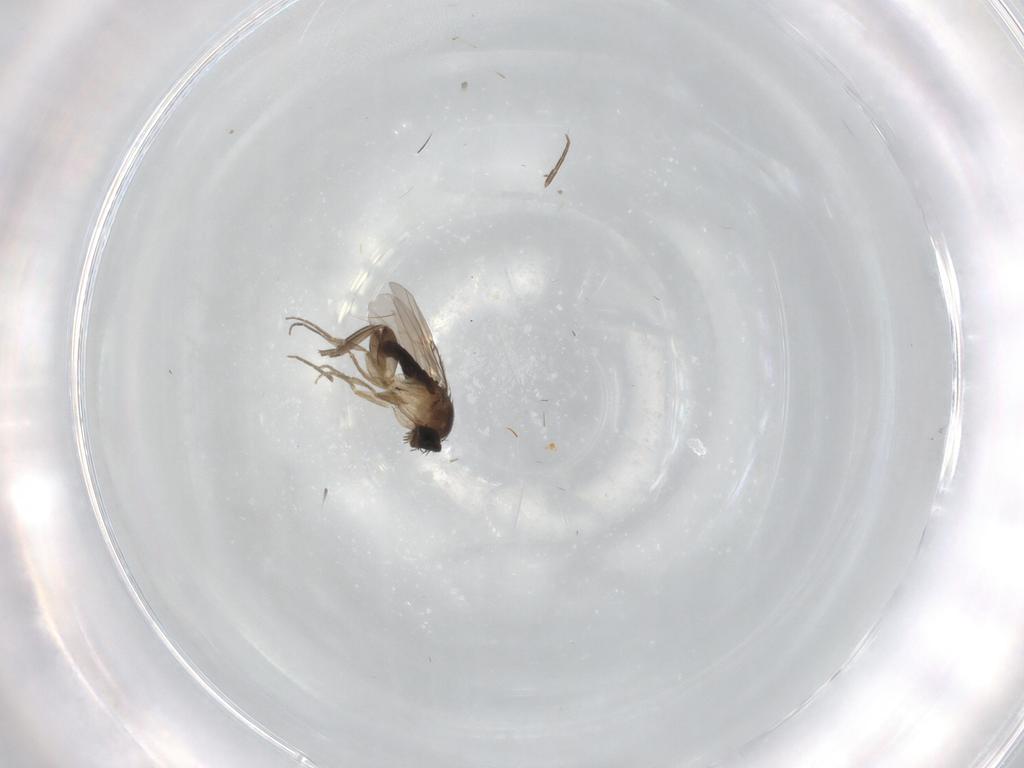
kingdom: Animalia
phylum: Arthropoda
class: Insecta
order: Diptera
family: Phoridae
